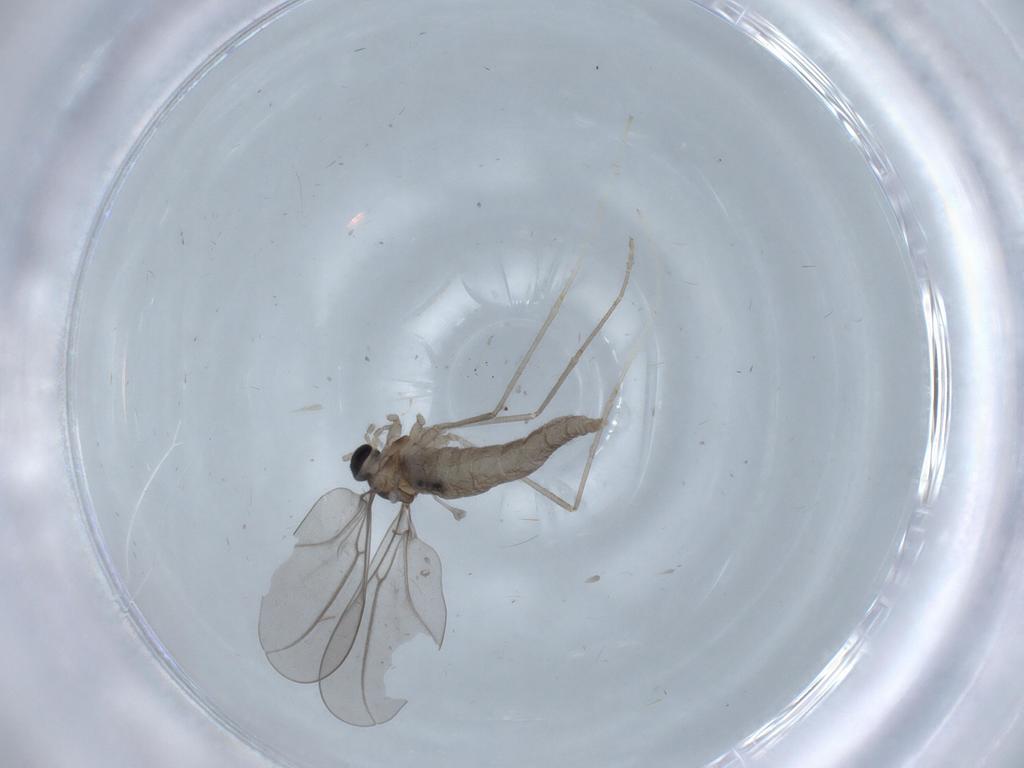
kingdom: Animalia
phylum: Arthropoda
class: Insecta
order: Diptera
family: Cecidomyiidae
